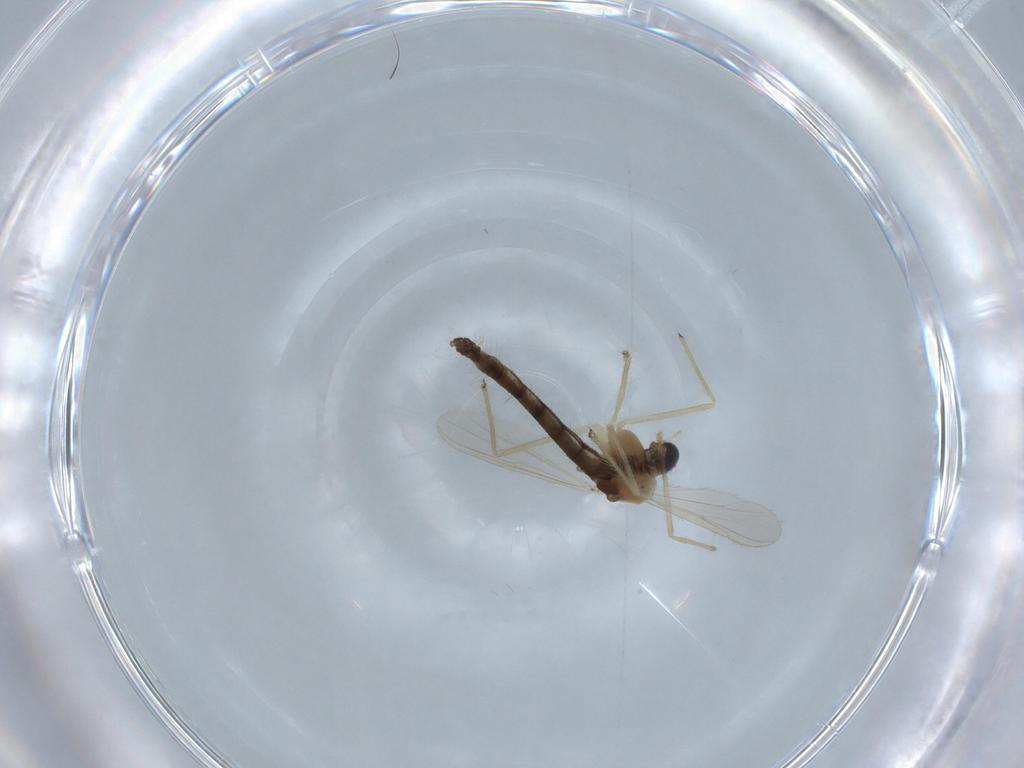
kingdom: Animalia
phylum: Arthropoda
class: Insecta
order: Diptera
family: Chironomidae
